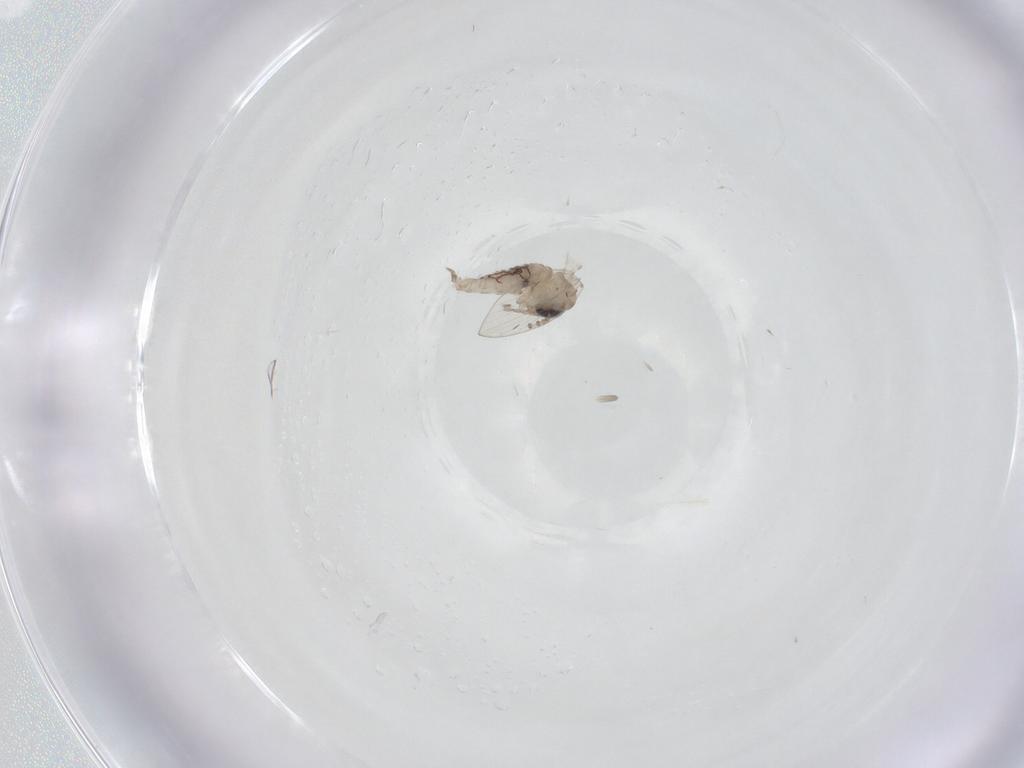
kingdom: Animalia
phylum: Arthropoda
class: Insecta
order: Diptera
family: Psychodidae
